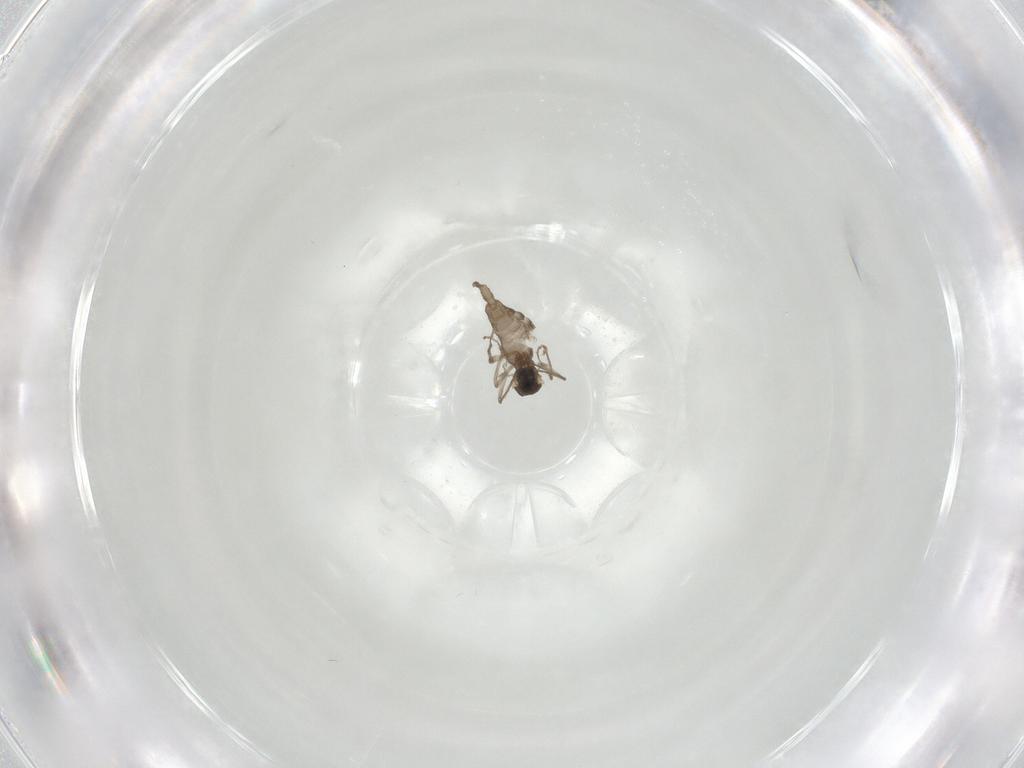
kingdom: Animalia
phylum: Arthropoda
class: Insecta
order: Diptera
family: Cecidomyiidae
